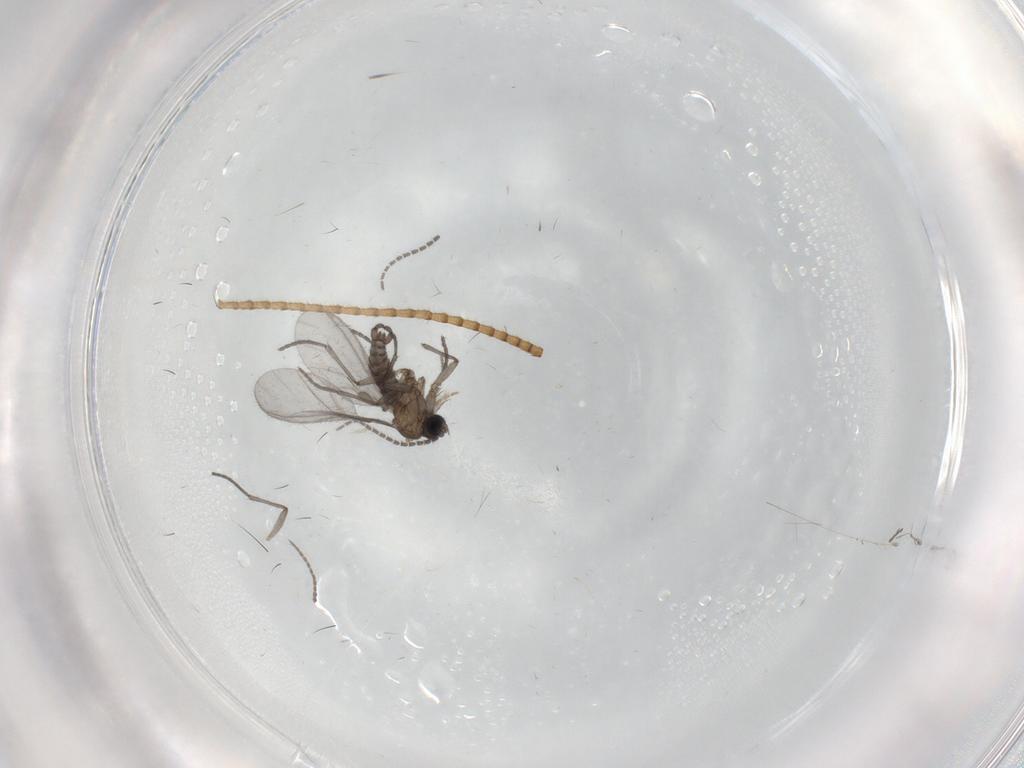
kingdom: Animalia
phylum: Arthropoda
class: Insecta
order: Diptera
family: Sciaridae
